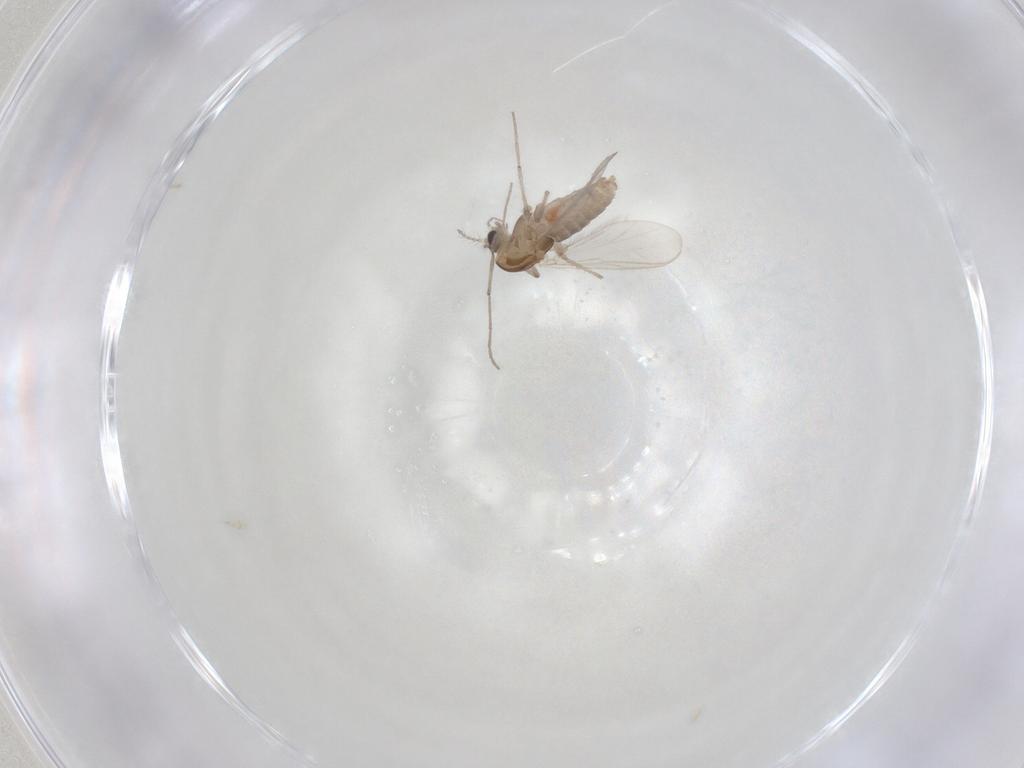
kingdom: Animalia
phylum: Arthropoda
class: Insecta
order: Diptera
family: Chironomidae
